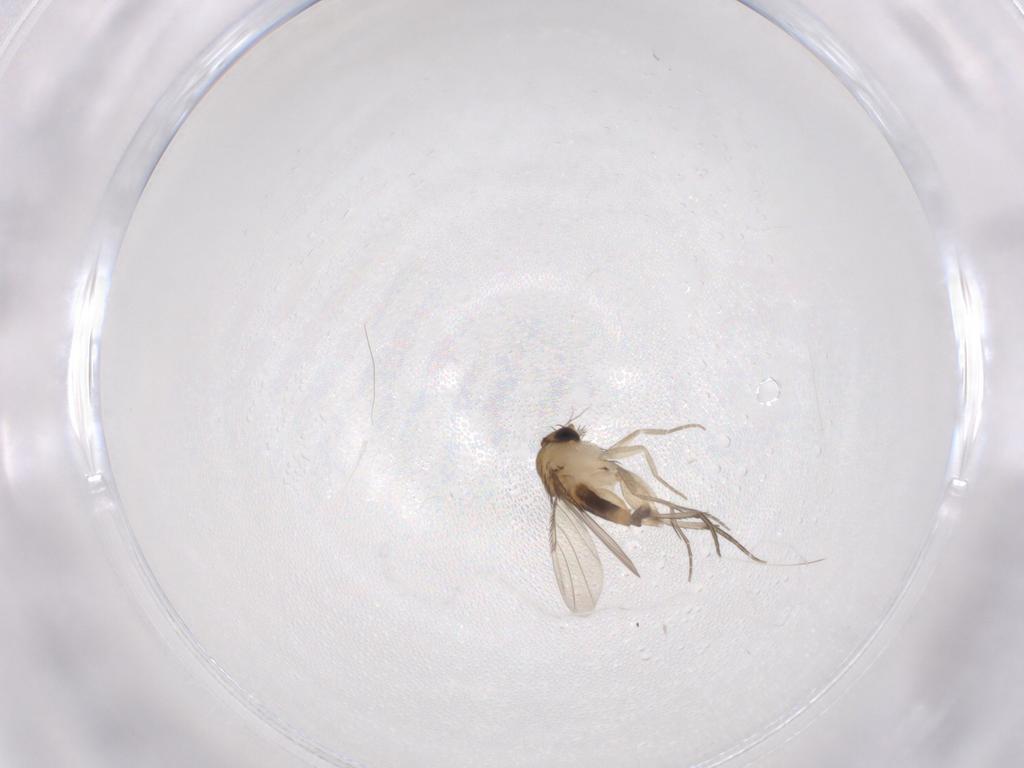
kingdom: Animalia
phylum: Arthropoda
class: Insecta
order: Diptera
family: Phoridae
